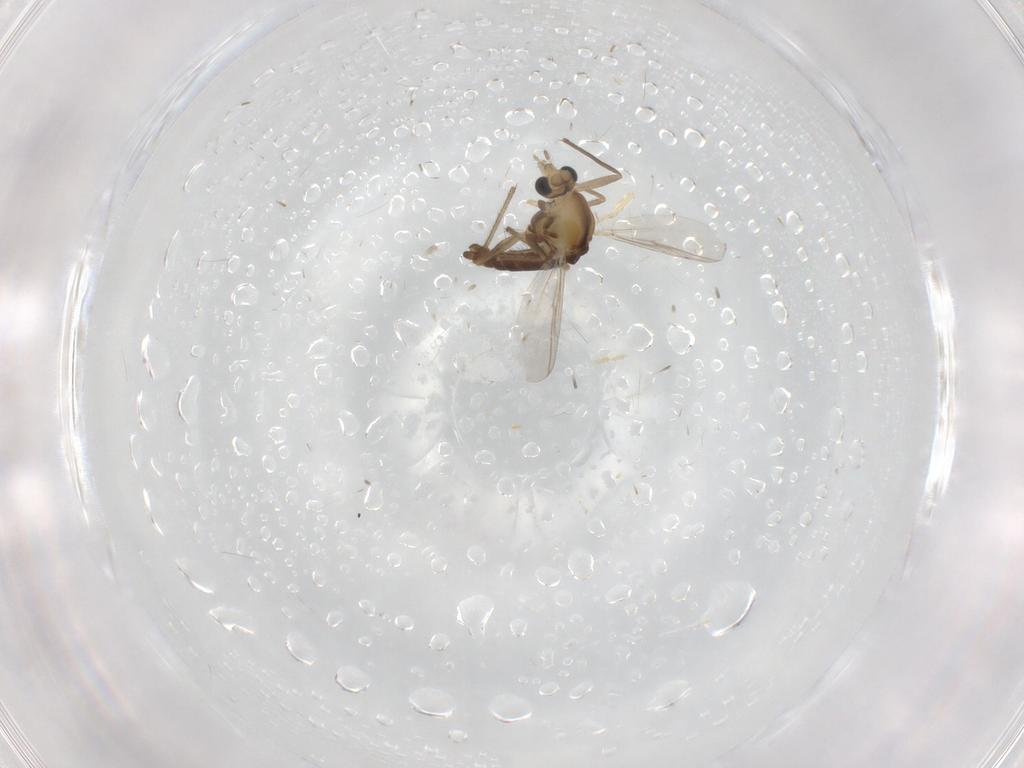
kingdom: Animalia
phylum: Arthropoda
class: Insecta
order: Diptera
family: Chironomidae
